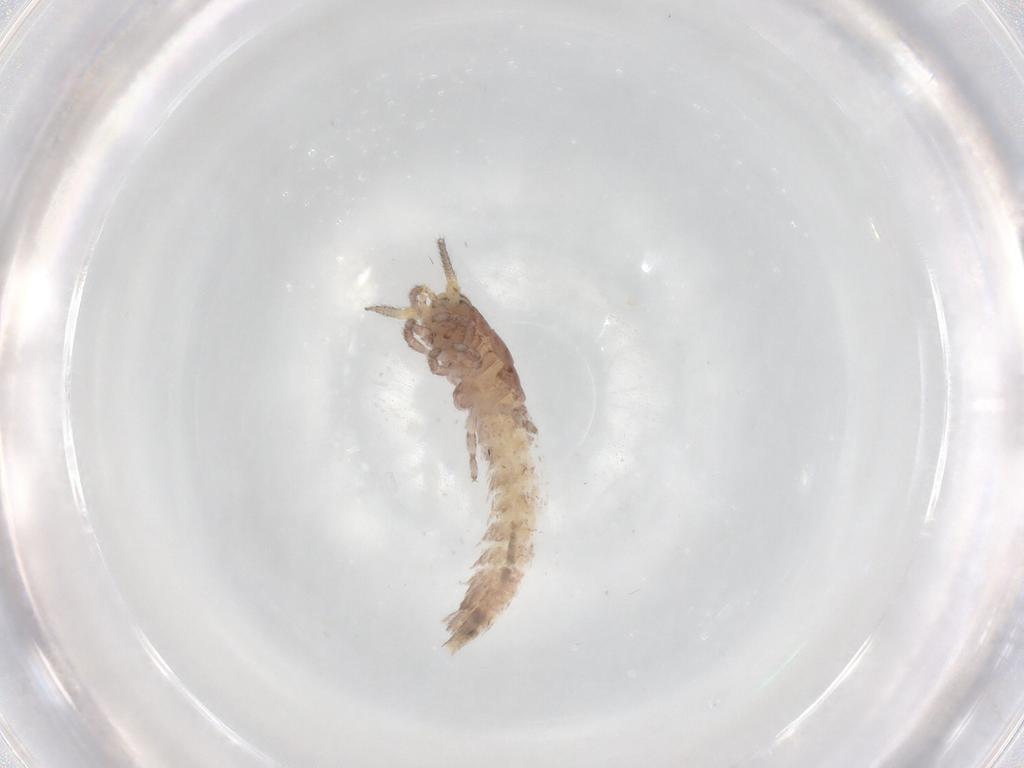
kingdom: Animalia
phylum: Arthropoda
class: Insecta
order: Archaeognatha
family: Machilidae
